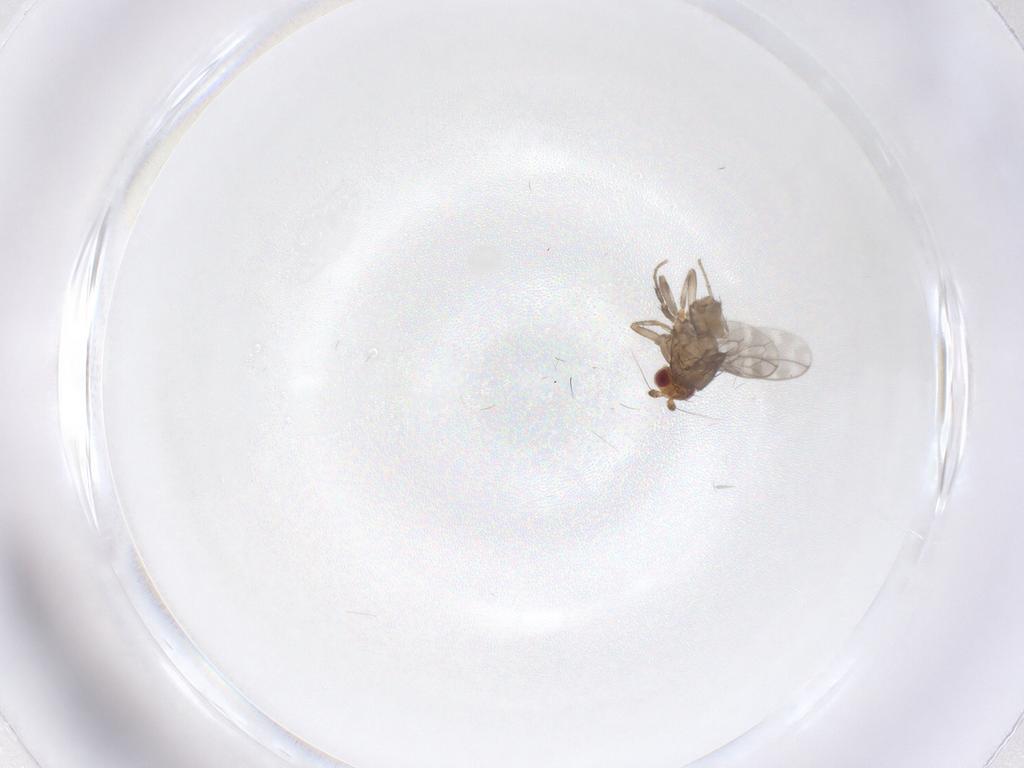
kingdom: Animalia
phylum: Arthropoda
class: Insecta
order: Diptera
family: Sphaeroceridae
